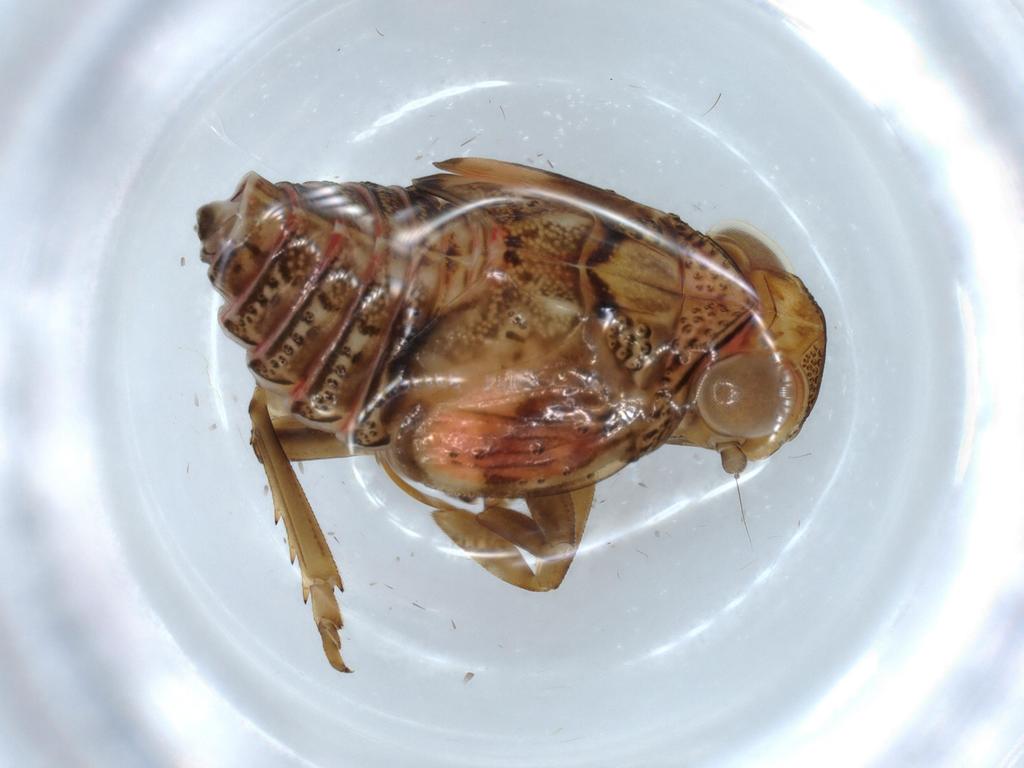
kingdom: Animalia
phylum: Arthropoda
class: Insecta
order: Hemiptera
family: Issidae
